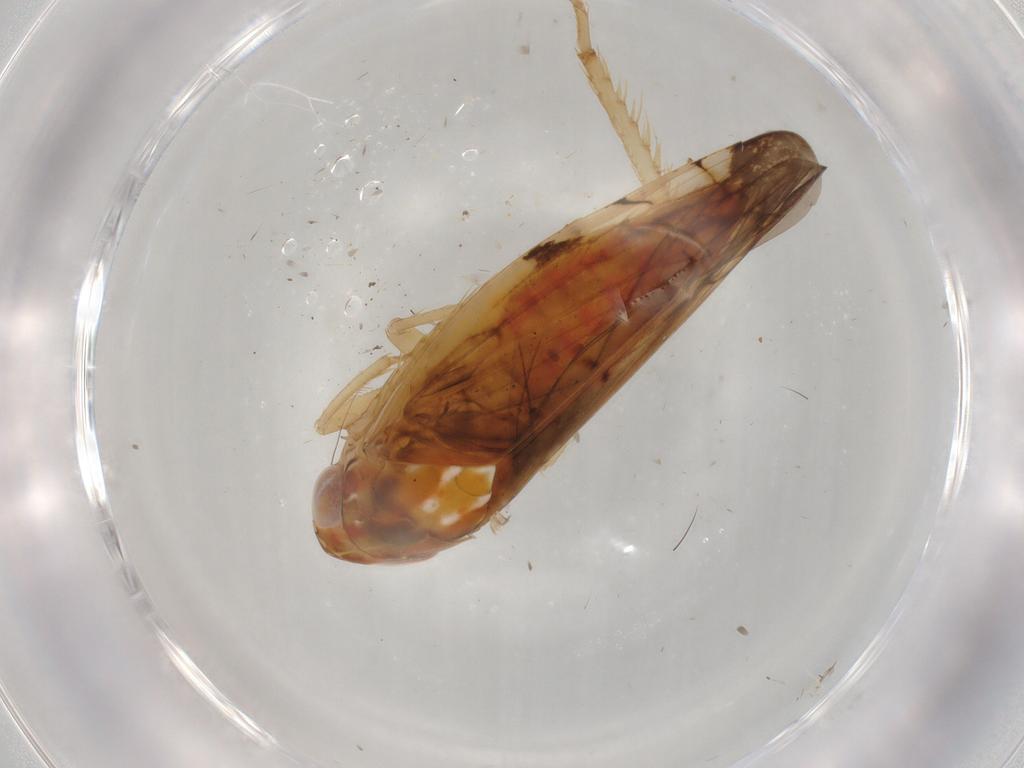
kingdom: Animalia
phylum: Arthropoda
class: Insecta
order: Hemiptera
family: Cicadellidae
